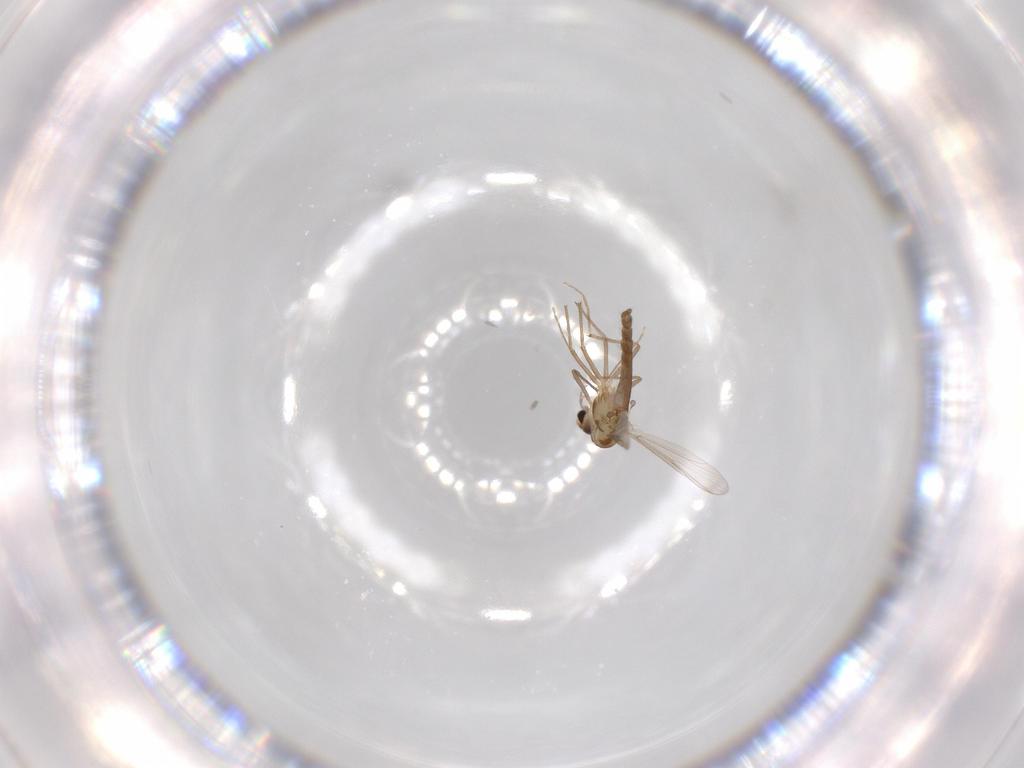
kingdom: Animalia
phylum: Arthropoda
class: Insecta
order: Diptera
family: Chironomidae
